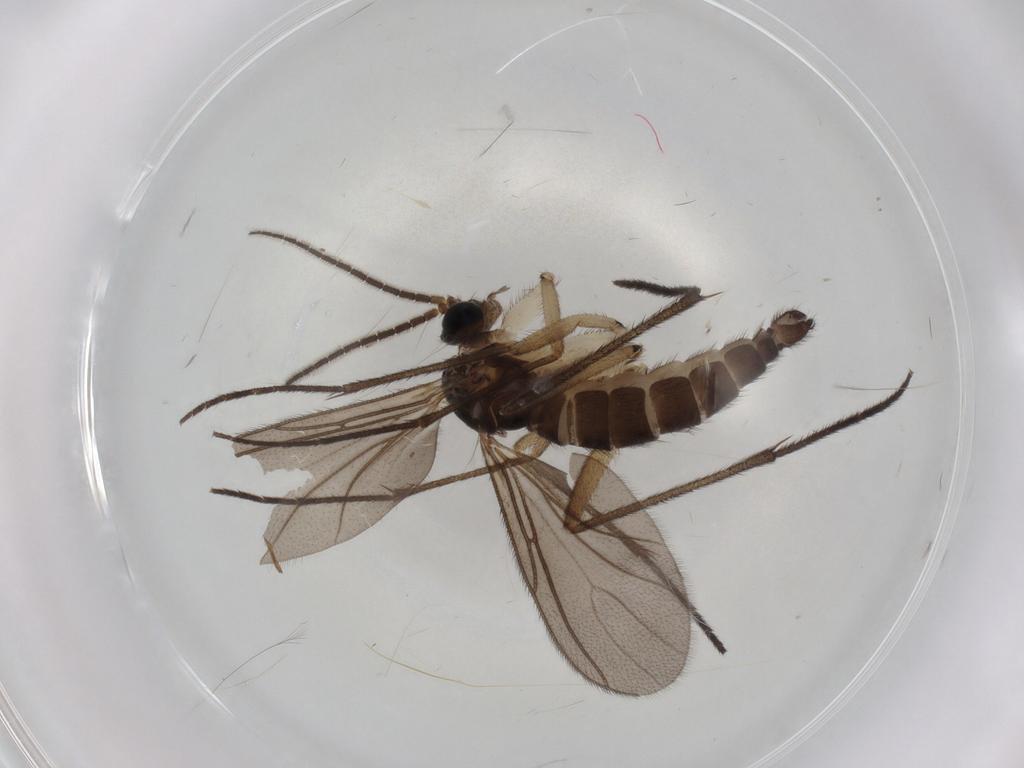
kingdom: Animalia
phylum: Arthropoda
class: Insecta
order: Diptera
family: Sciaridae
